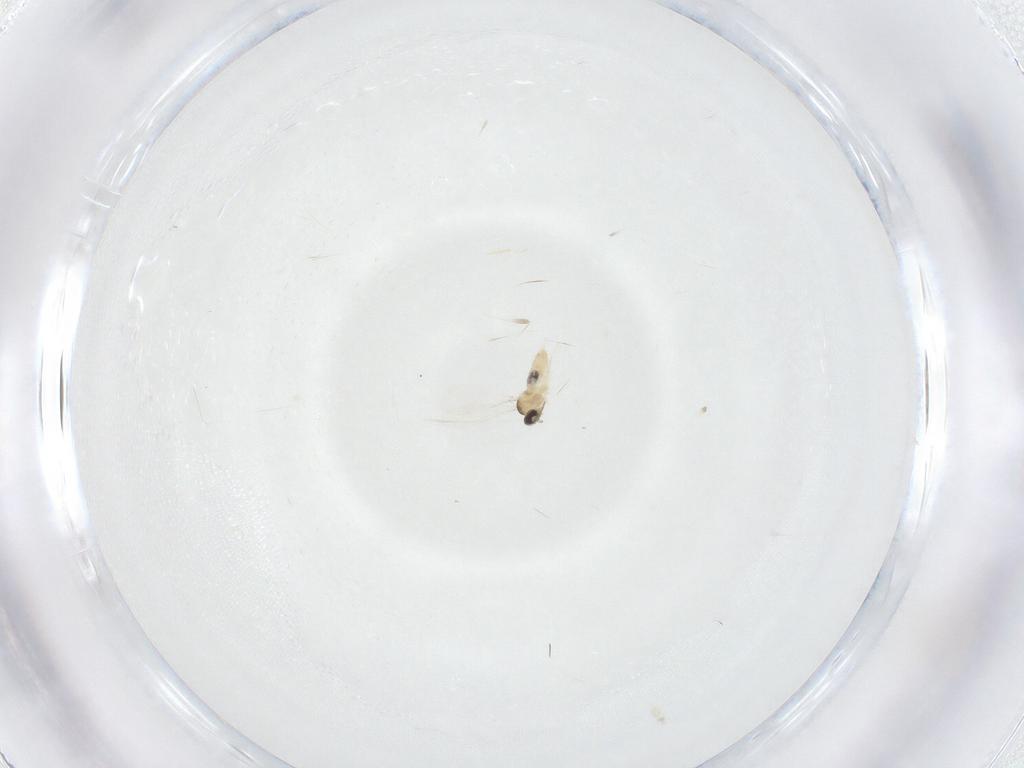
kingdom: Animalia
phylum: Arthropoda
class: Insecta
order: Diptera
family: Cecidomyiidae
